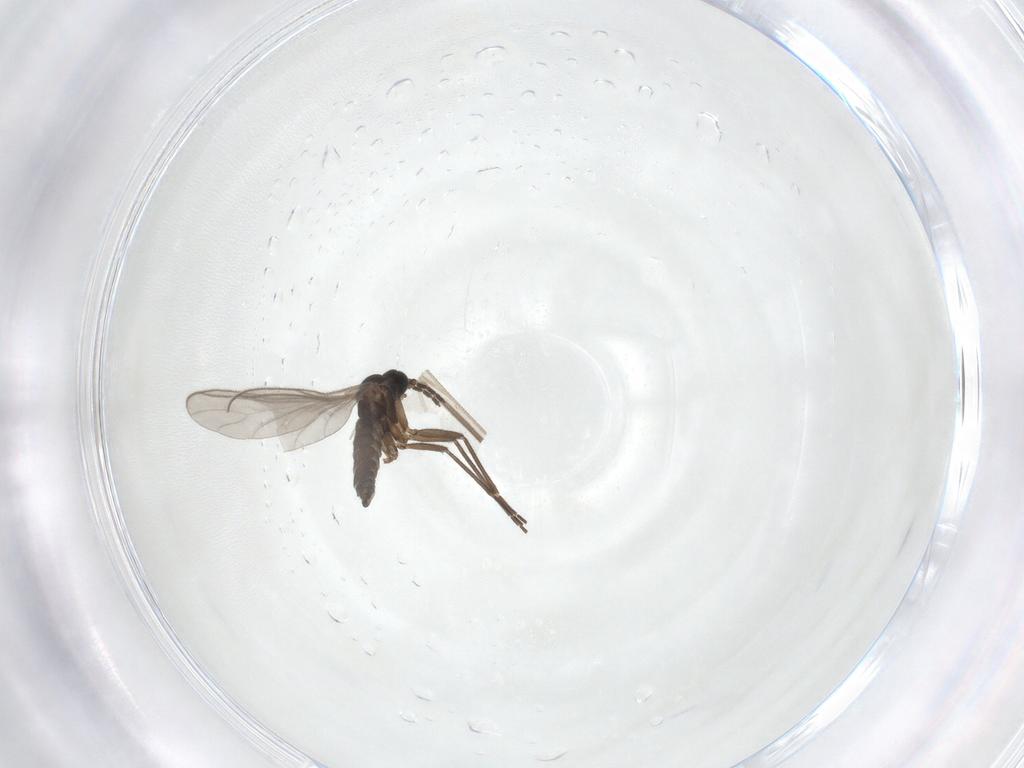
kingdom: Animalia
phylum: Arthropoda
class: Insecta
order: Diptera
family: Sciaridae
